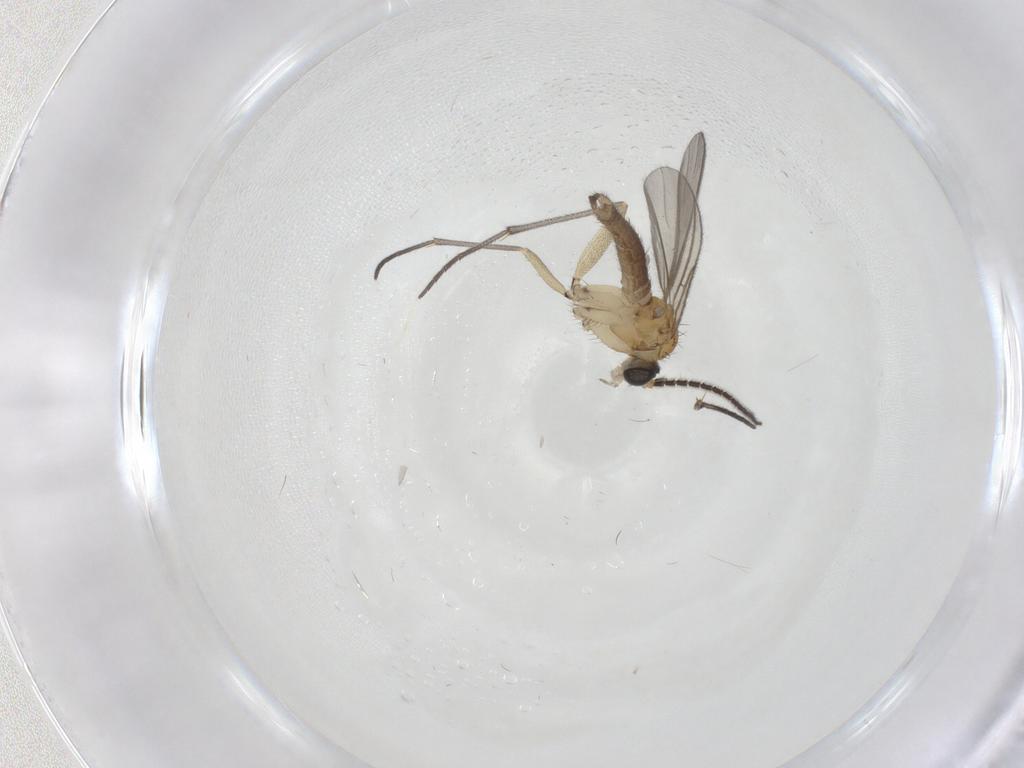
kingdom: Animalia
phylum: Arthropoda
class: Insecta
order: Diptera
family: Sciaridae
